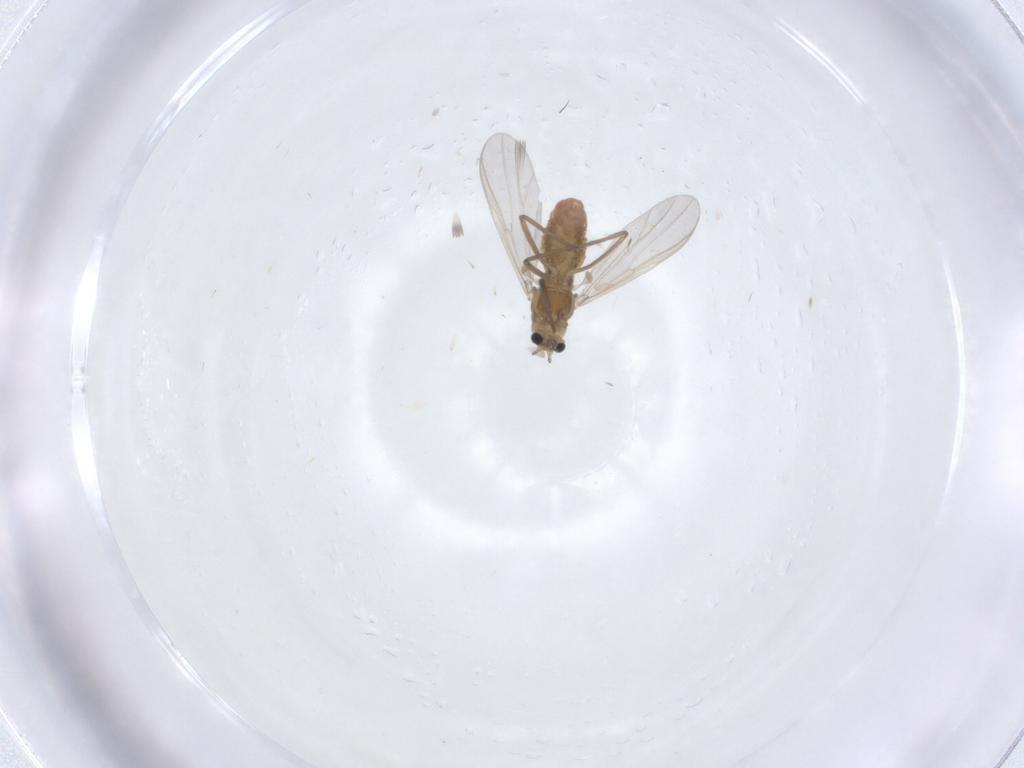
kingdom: Animalia
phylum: Arthropoda
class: Insecta
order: Diptera
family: Chironomidae
